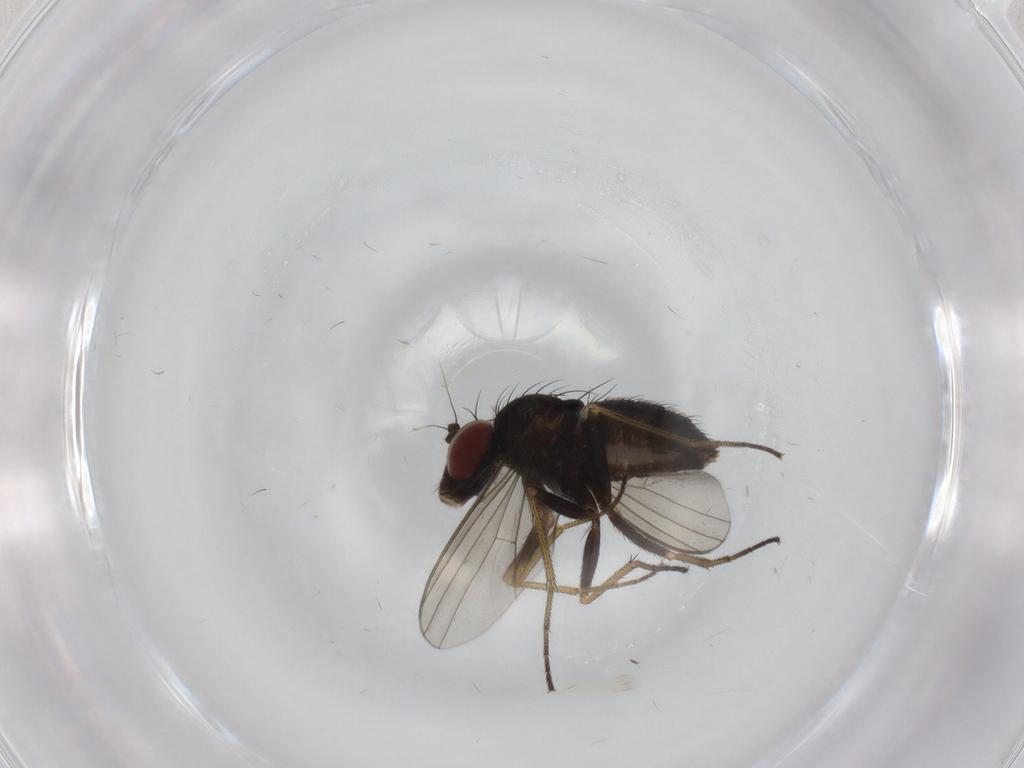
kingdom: Animalia
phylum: Arthropoda
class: Insecta
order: Diptera
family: Dolichopodidae
